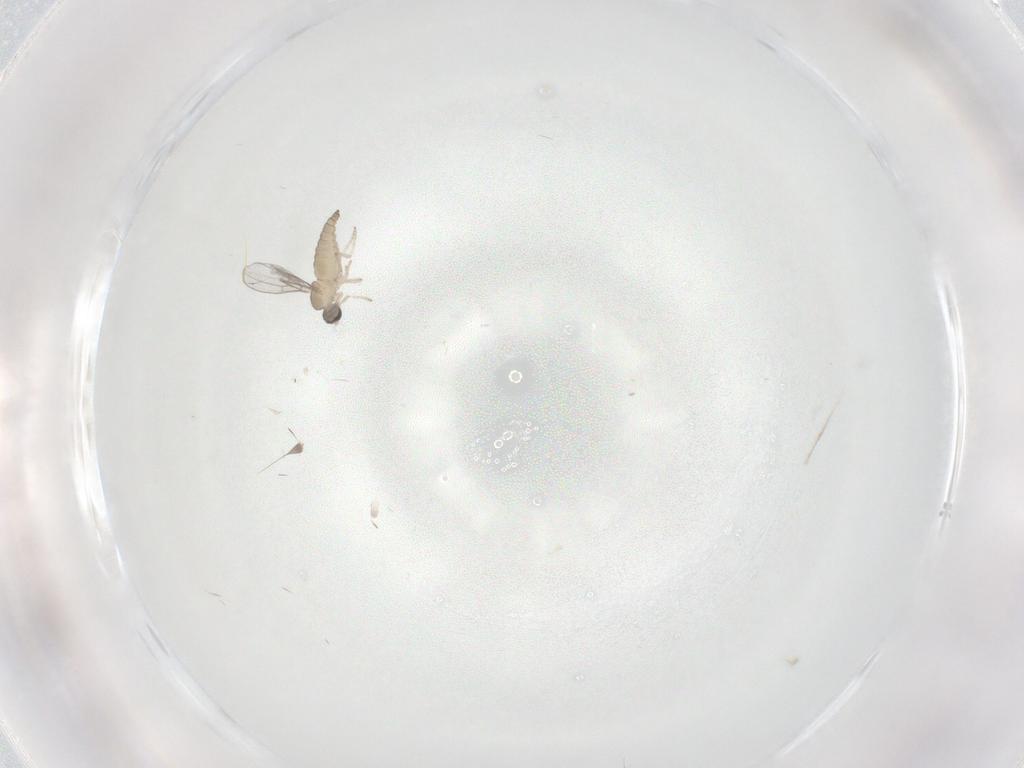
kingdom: Animalia
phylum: Arthropoda
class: Insecta
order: Diptera
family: Cecidomyiidae
